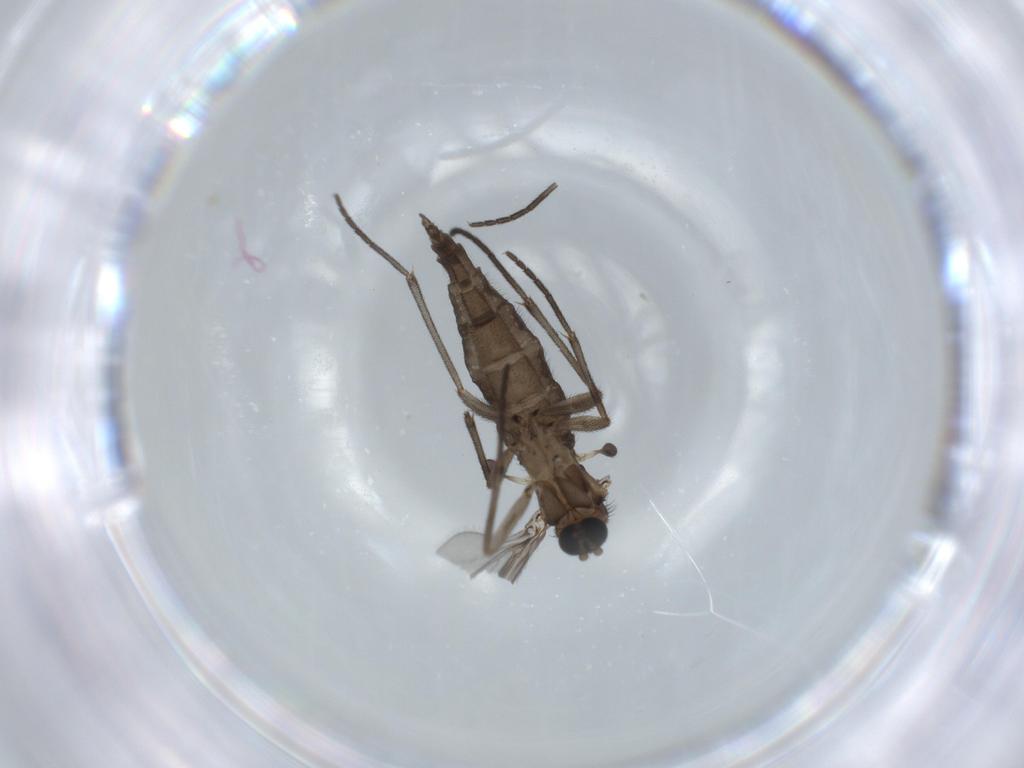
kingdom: Animalia
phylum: Arthropoda
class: Insecta
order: Diptera
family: Sciaridae
